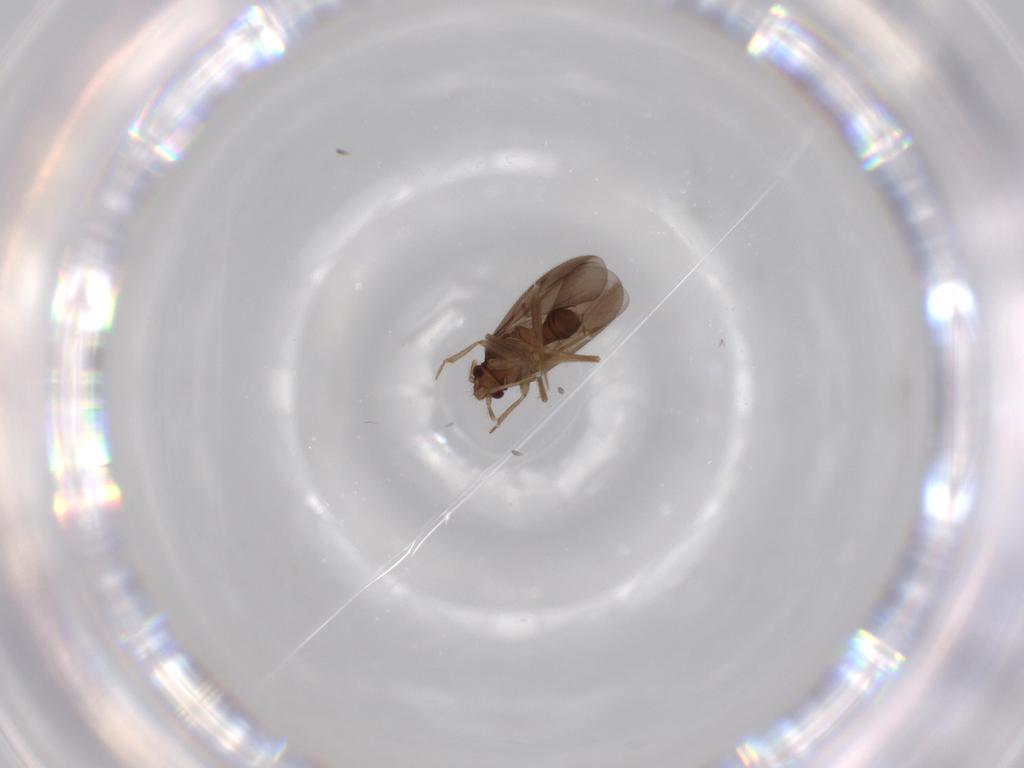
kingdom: Animalia
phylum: Arthropoda
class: Insecta
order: Hemiptera
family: Ceratocombidae
